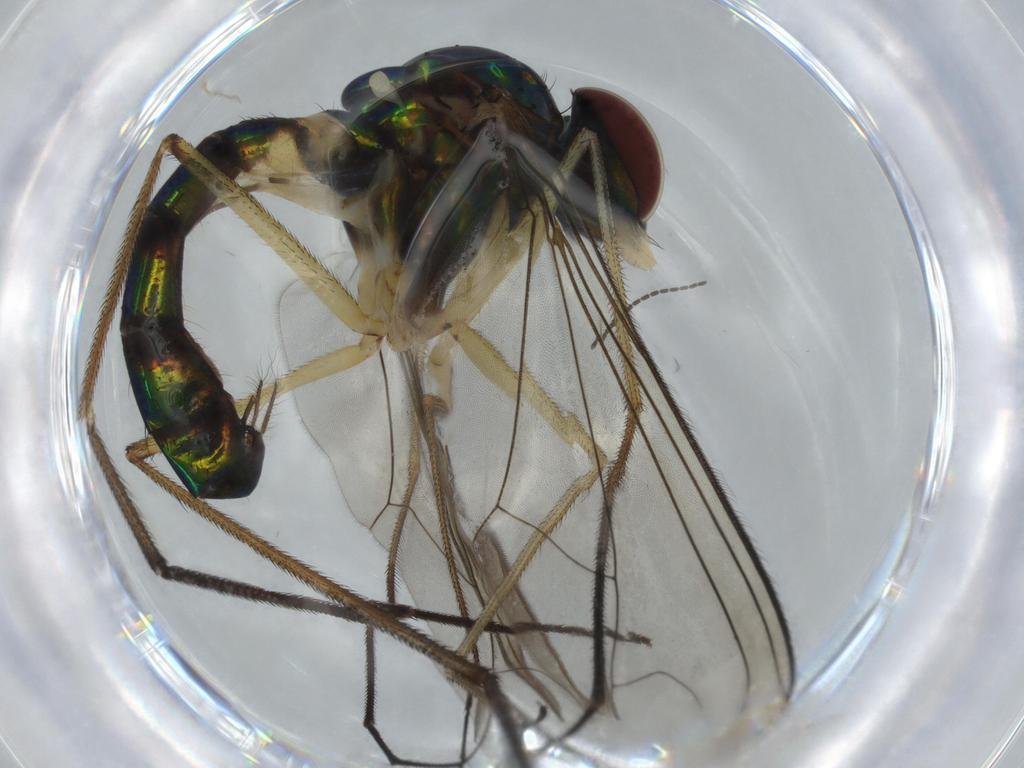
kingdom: Animalia
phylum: Arthropoda
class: Insecta
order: Diptera
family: Dolichopodidae
